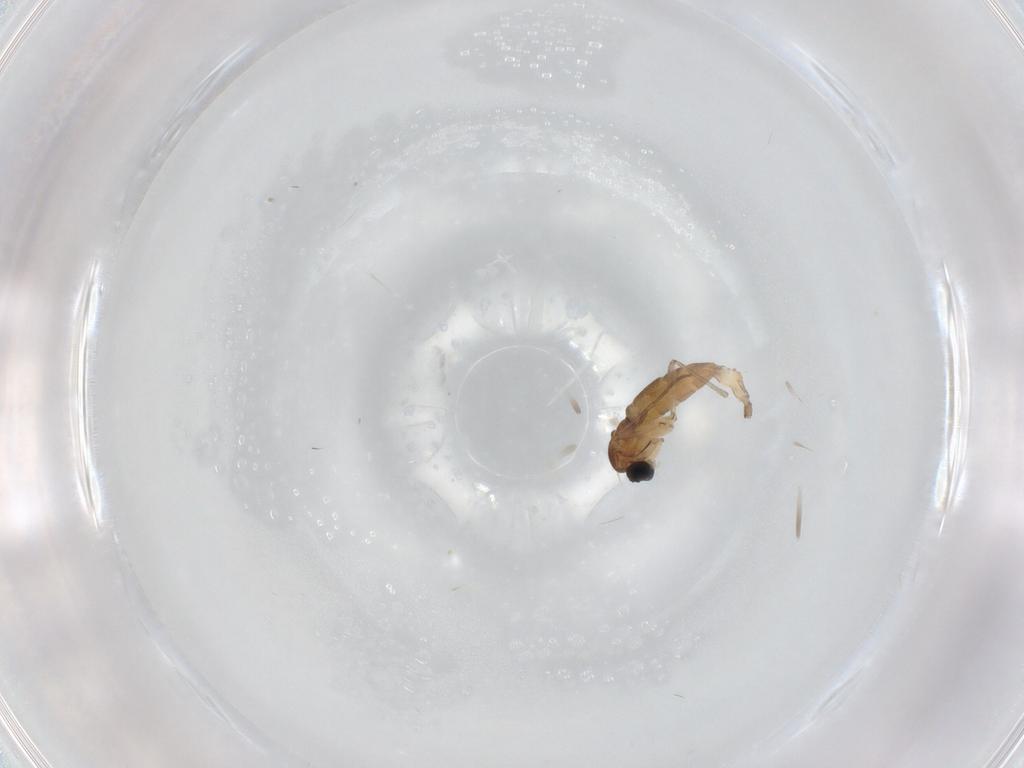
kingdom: Animalia
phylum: Arthropoda
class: Insecta
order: Diptera
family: Sciaridae
